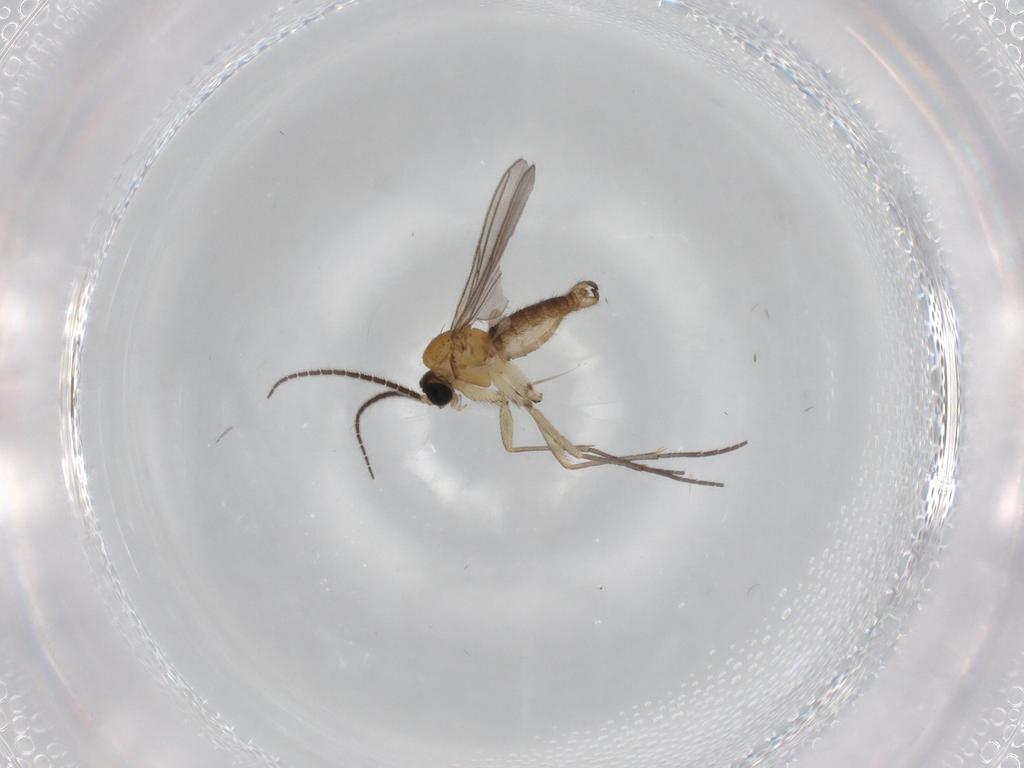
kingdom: Animalia
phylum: Arthropoda
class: Insecta
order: Diptera
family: Sciaridae
